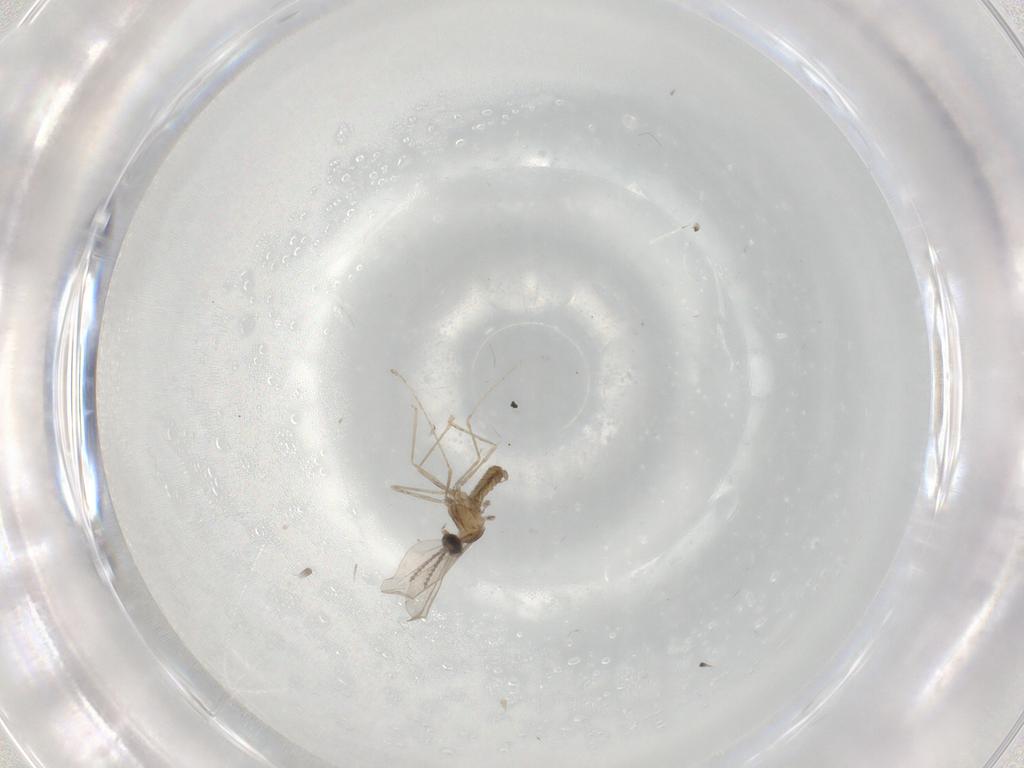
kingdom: Animalia
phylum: Arthropoda
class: Insecta
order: Diptera
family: Cecidomyiidae
